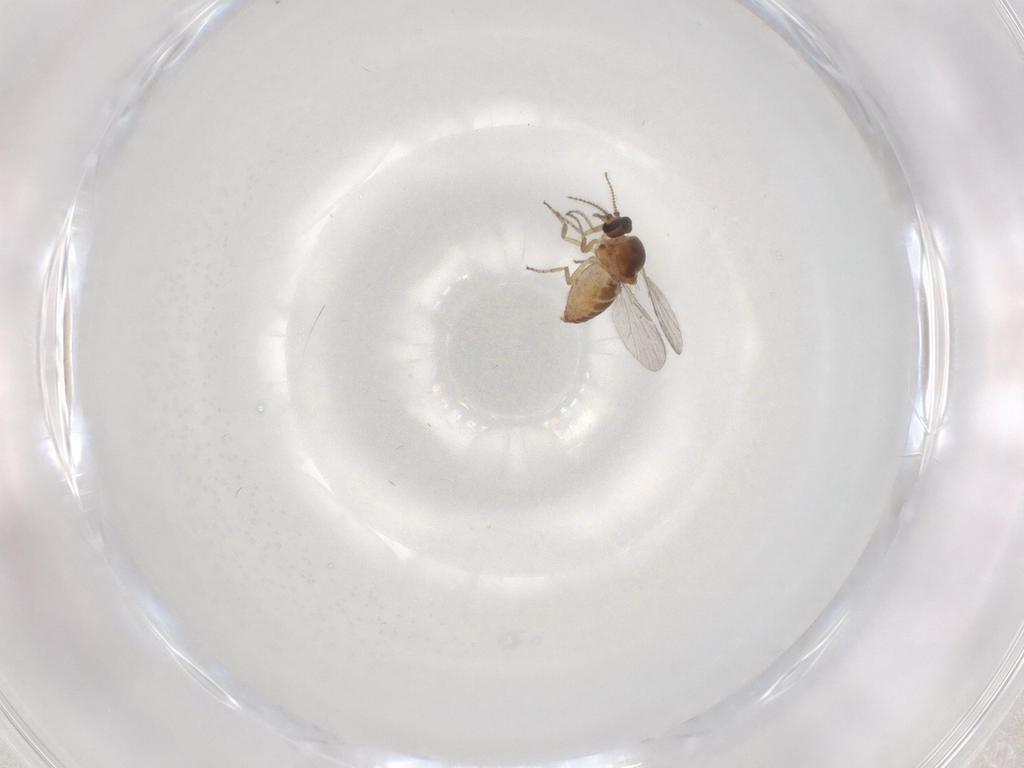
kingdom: Animalia
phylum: Arthropoda
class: Insecta
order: Diptera
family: Ceratopogonidae
